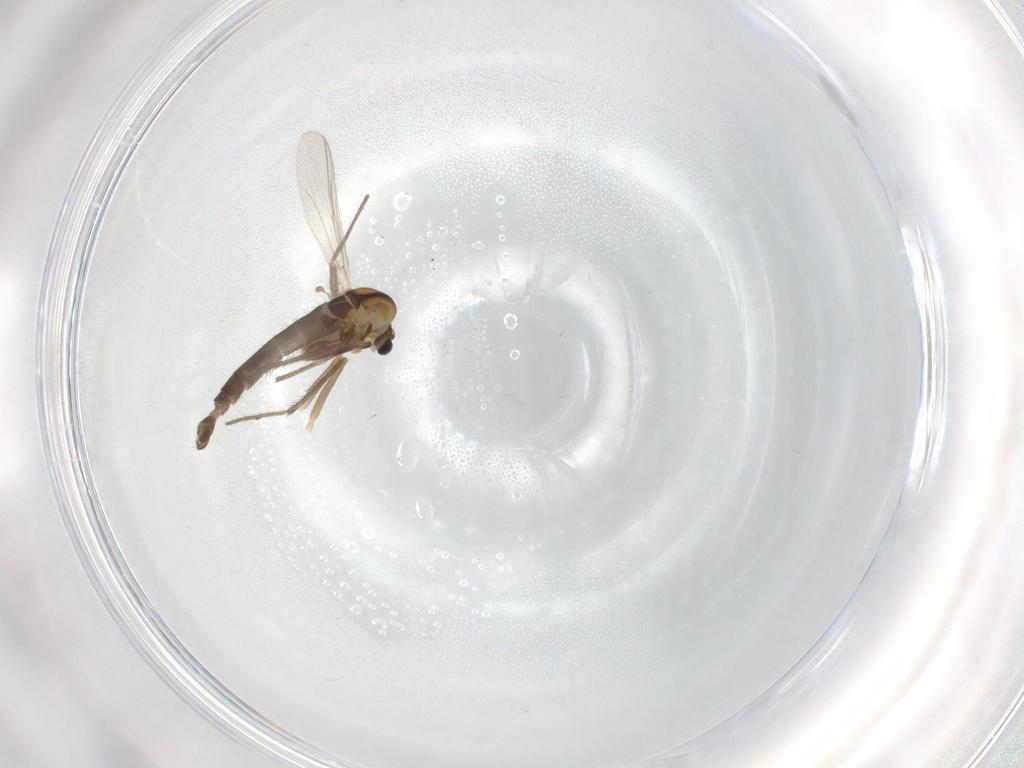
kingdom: Animalia
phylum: Arthropoda
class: Insecta
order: Diptera
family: Chironomidae
